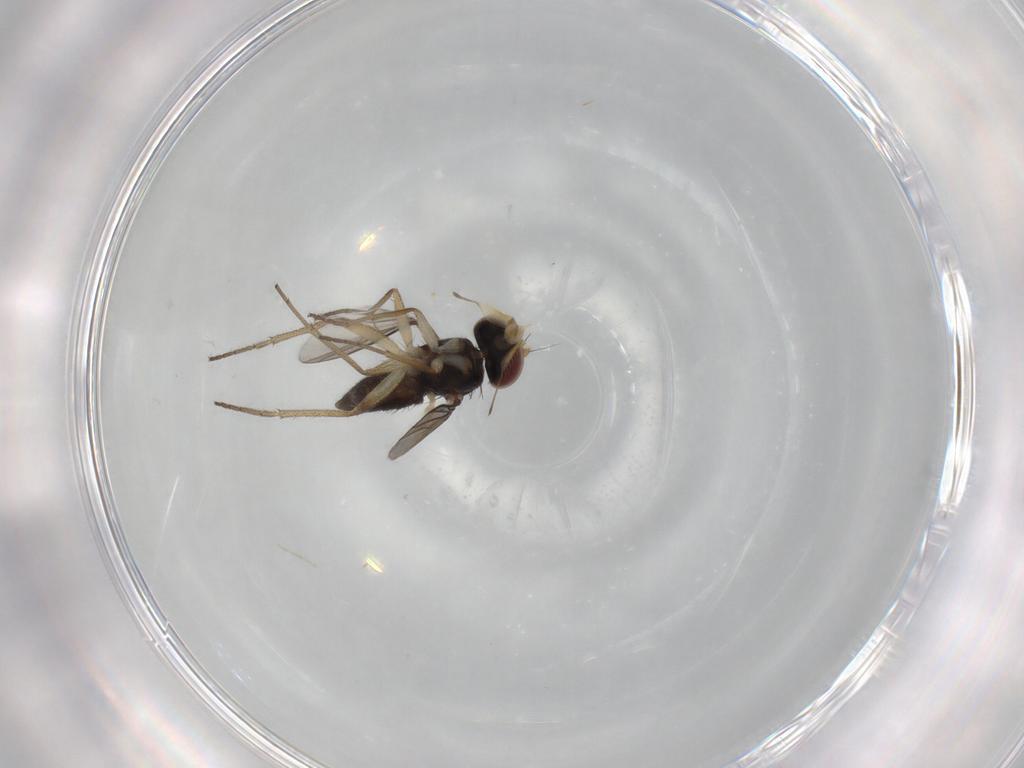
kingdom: Animalia
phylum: Arthropoda
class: Insecta
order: Diptera
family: Dolichopodidae
